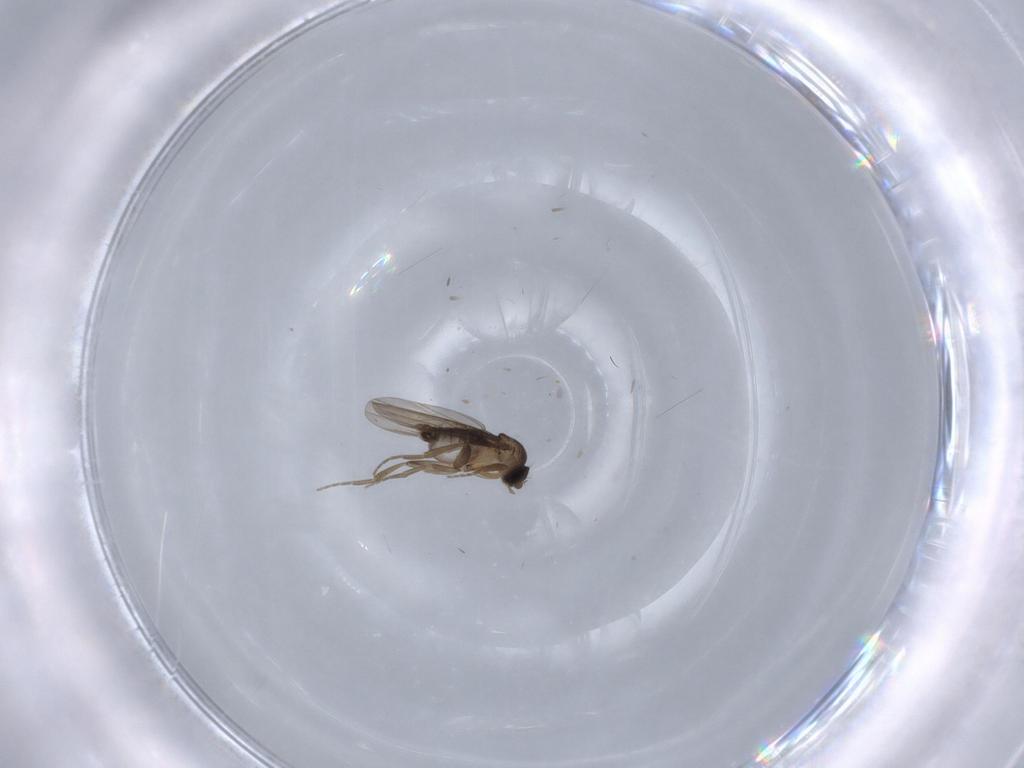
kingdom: Animalia
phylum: Arthropoda
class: Insecta
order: Diptera
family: Phoridae
